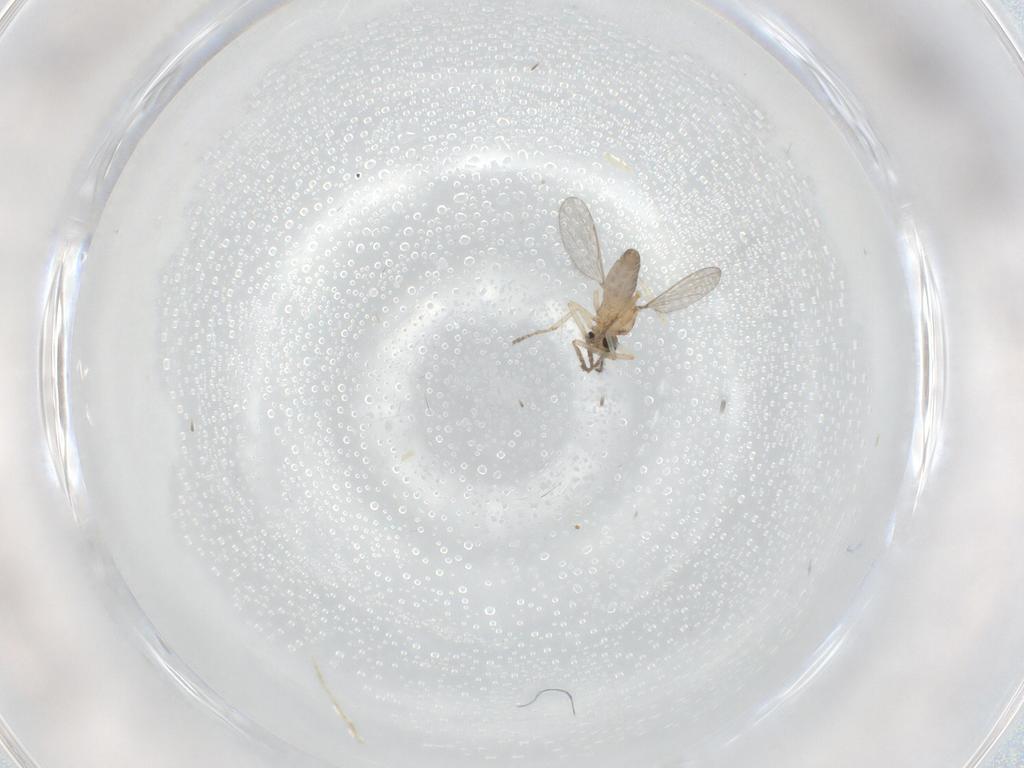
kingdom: Animalia
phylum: Arthropoda
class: Insecta
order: Diptera
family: Ceratopogonidae
